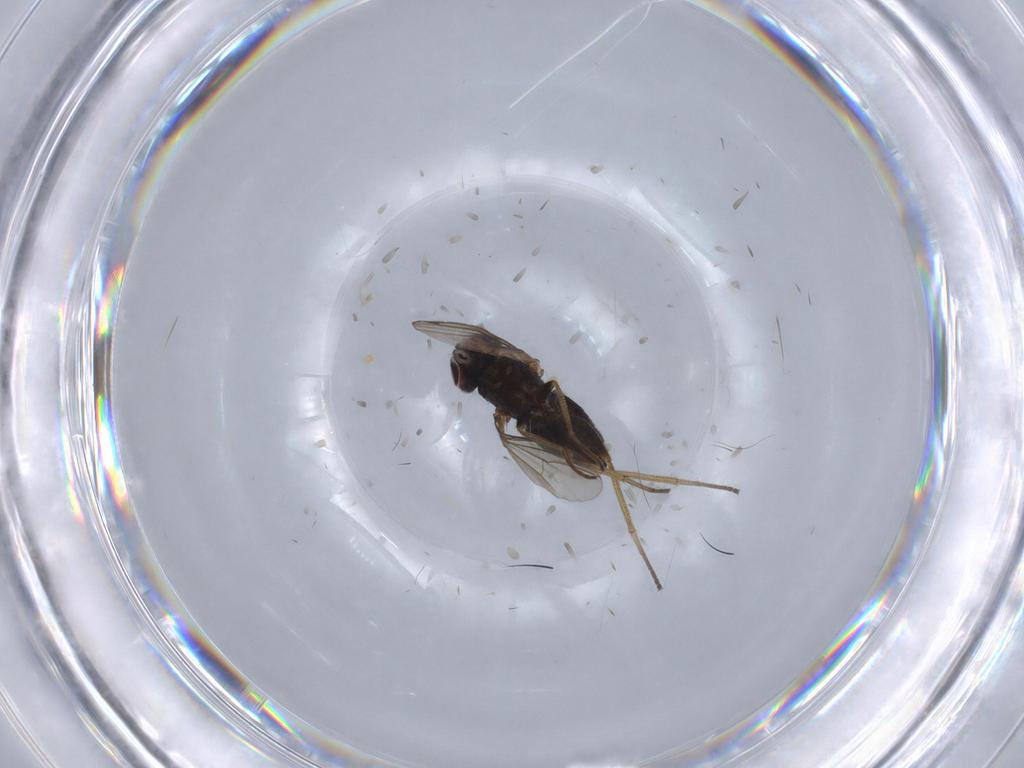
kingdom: Animalia
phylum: Arthropoda
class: Insecta
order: Diptera
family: Dolichopodidae
